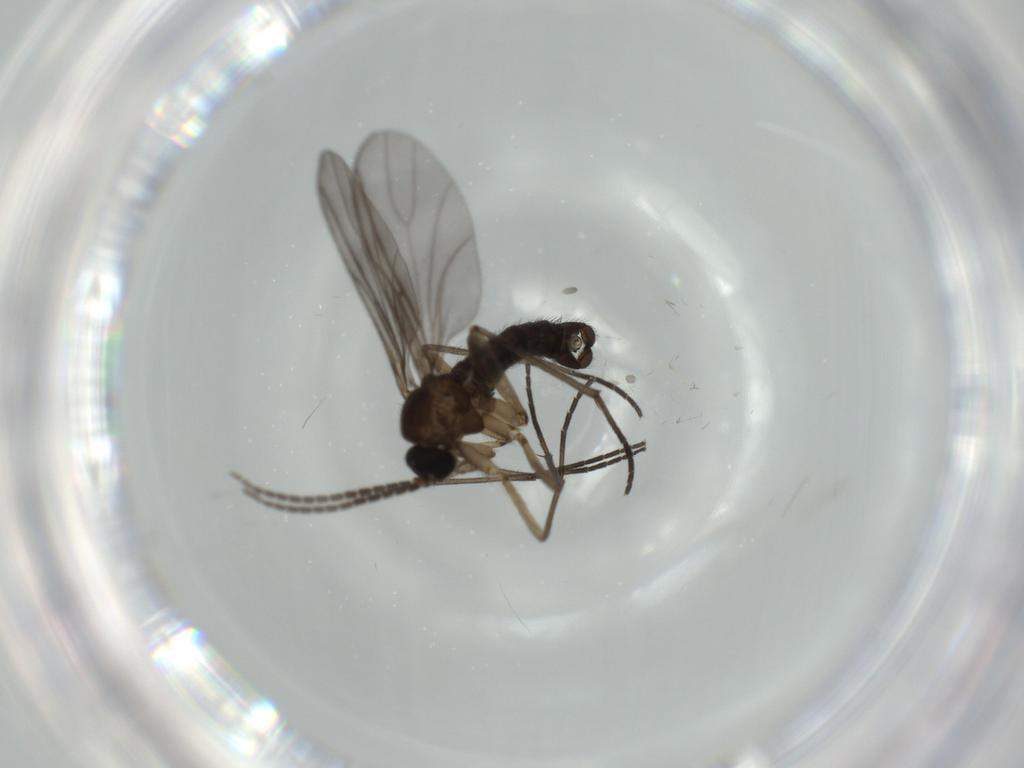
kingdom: Animalia
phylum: Arthropoda
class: Insecta
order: Diptera
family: Sciaridae
